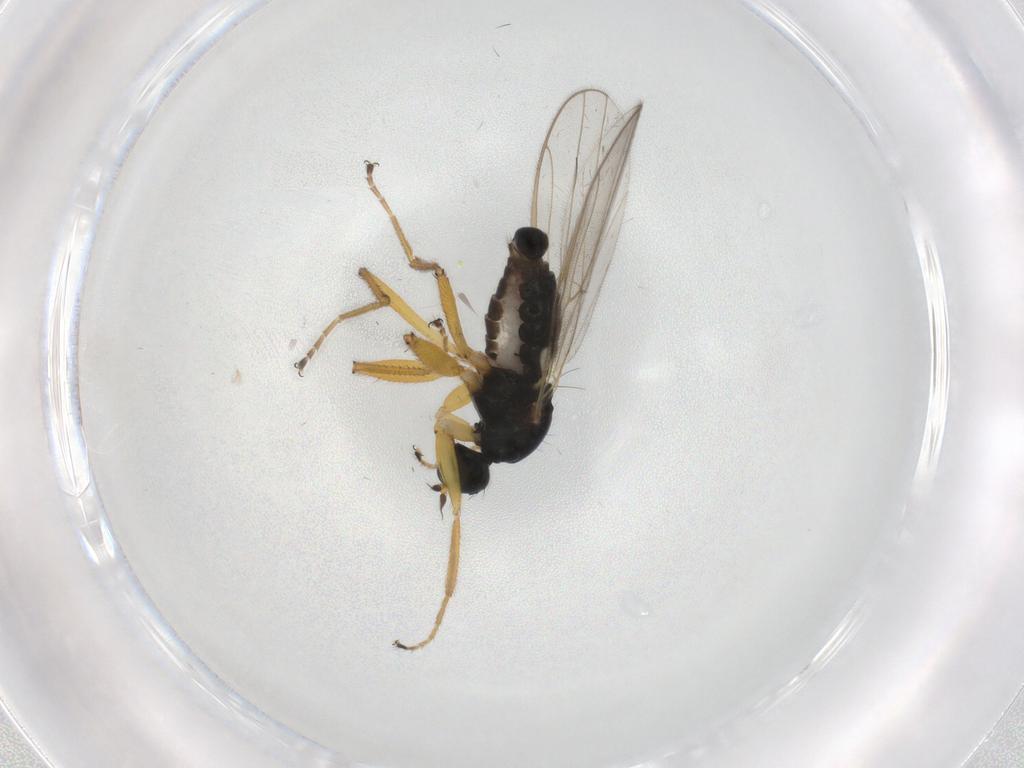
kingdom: Animalia
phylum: Arthropoda
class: Insecta
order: Diptera
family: Hybotidae
